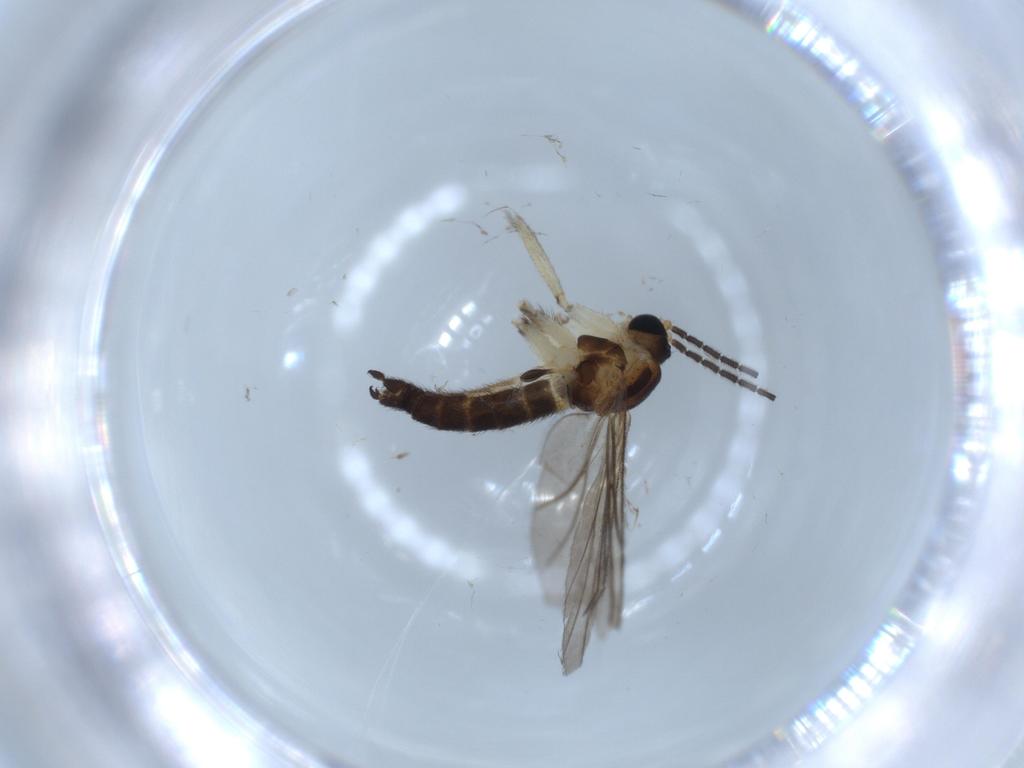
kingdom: Animalia
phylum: Arthropoda
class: Insecta
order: Diptera
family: Sciaridae
